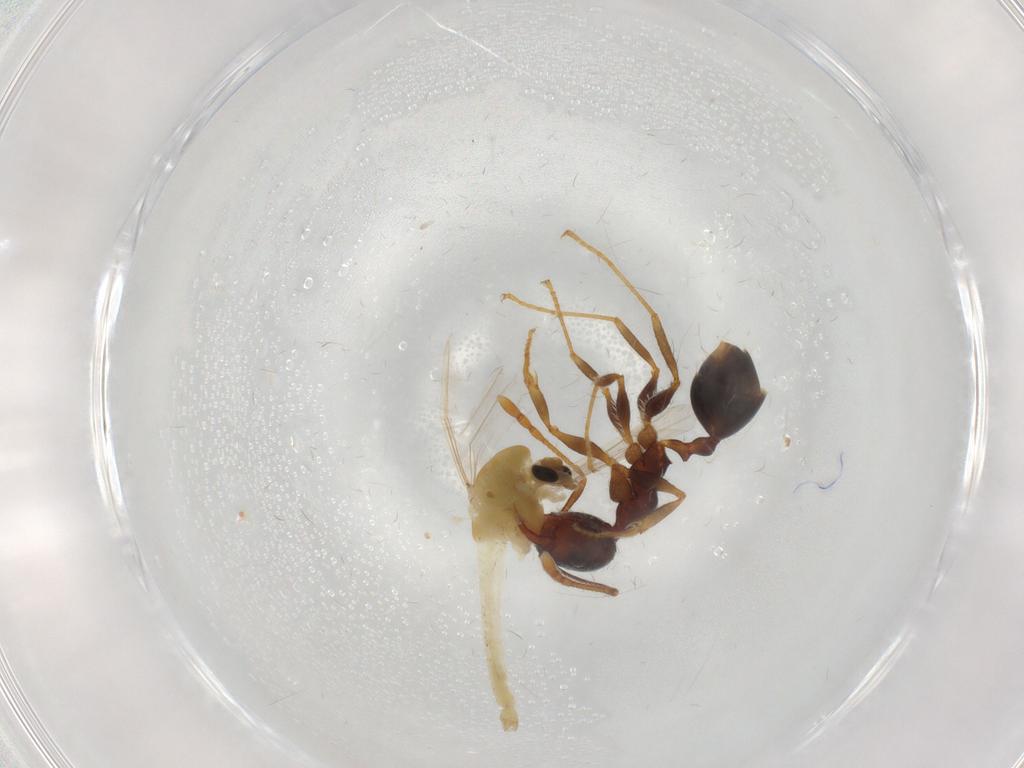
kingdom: Animalia
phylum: Arthropoda
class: Insecta
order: Diptera
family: Chironomidae
